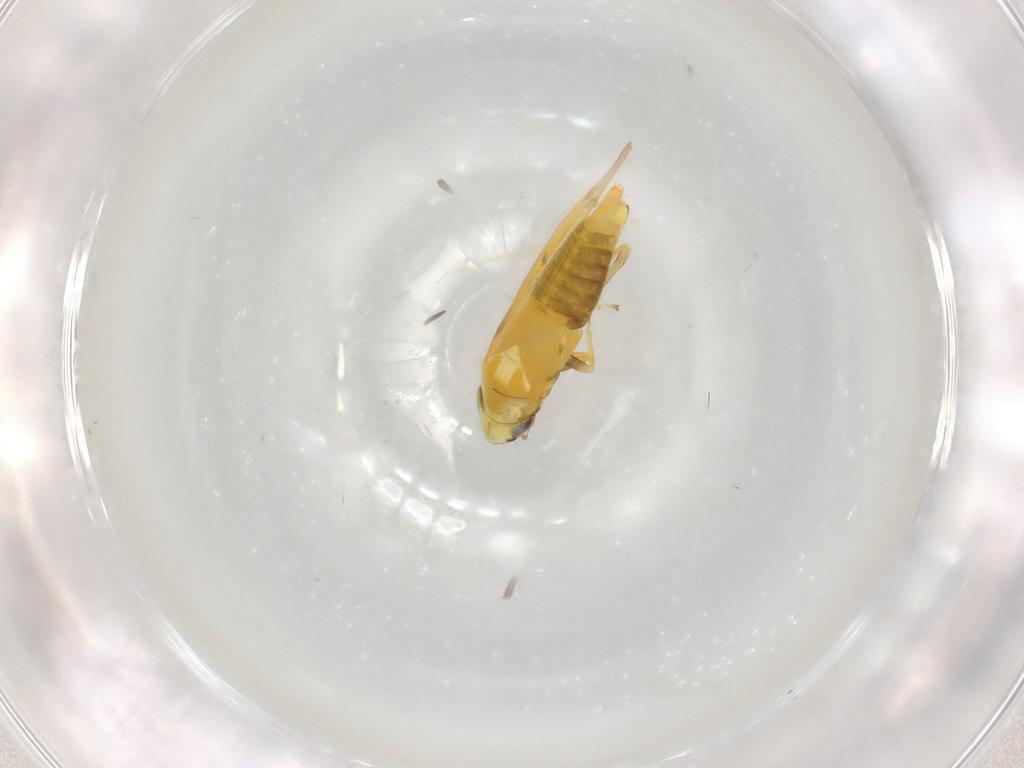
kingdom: Animalia
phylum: Arthropoda
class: Insecta
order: Hemiptera
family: Cicadellidae
